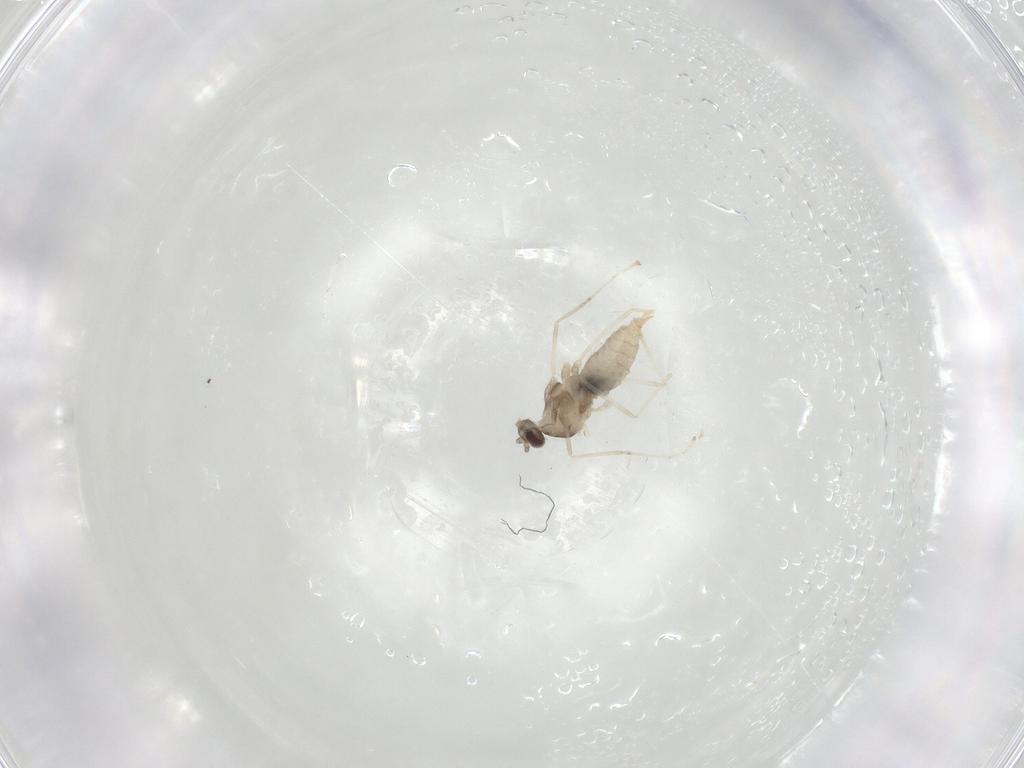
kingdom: Animalia
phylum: Arthropoda
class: Insecta
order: Diptera
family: Cecidomyiidae
